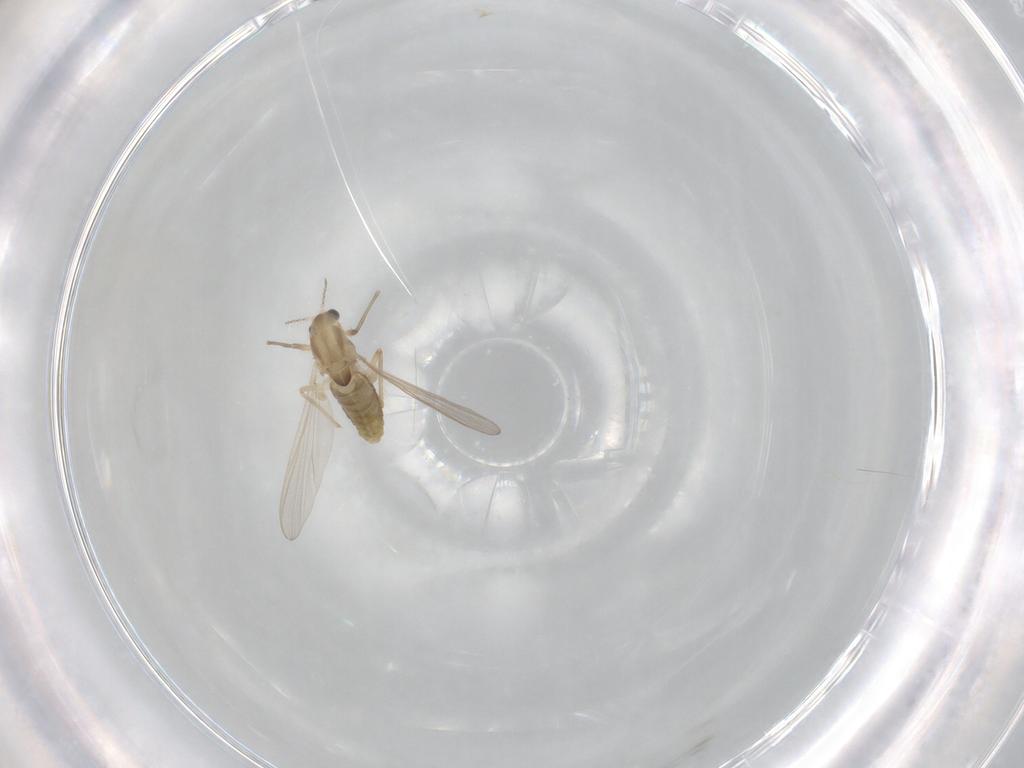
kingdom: Animalia
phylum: Arthropoda
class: Insecta
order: Diptera
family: Chironomidae
